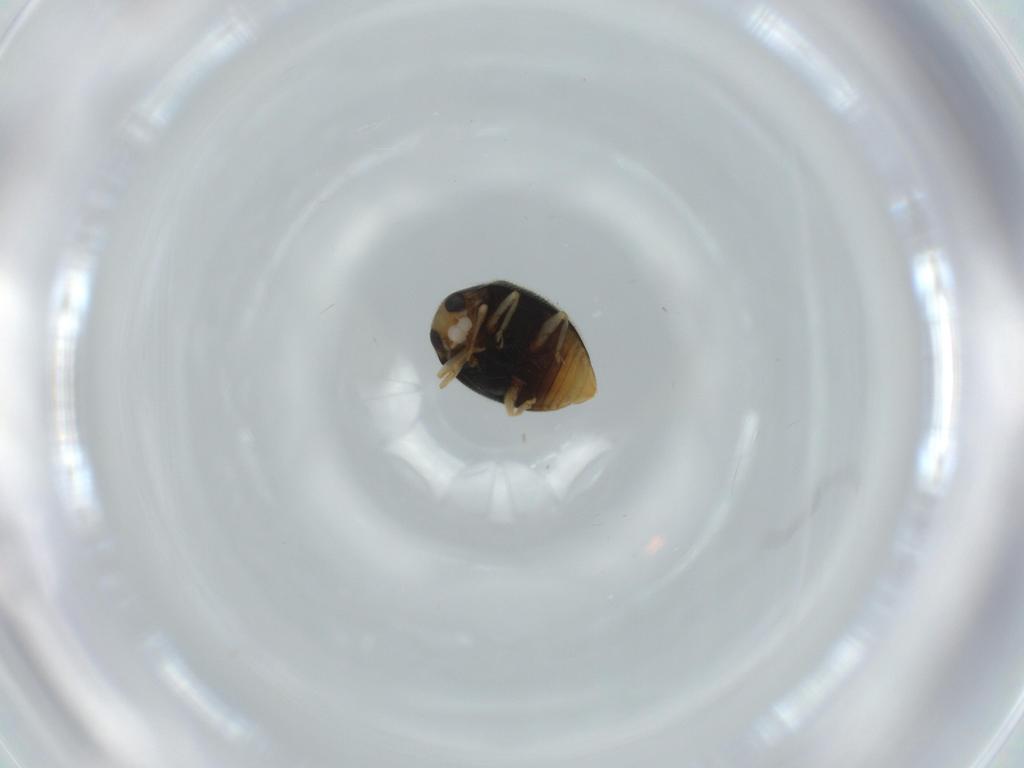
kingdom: Animalia
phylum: Arthropoda
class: Insecta
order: Coleoptera
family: Coccinellidae
